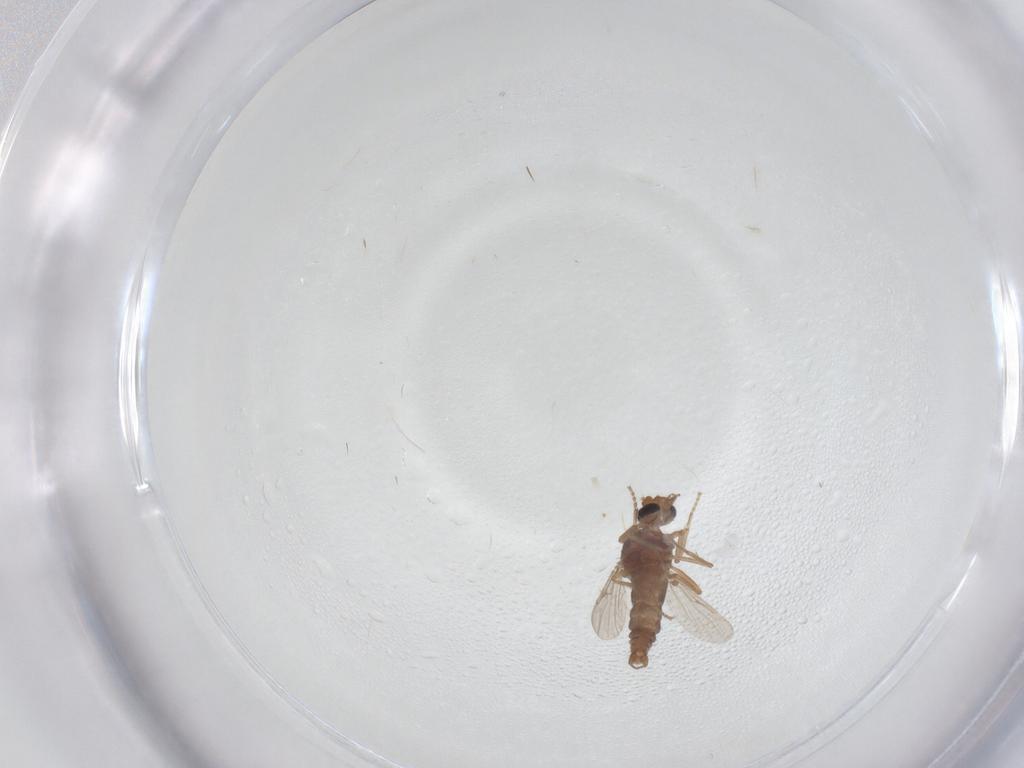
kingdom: Animalia
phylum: Arthropoda
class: Insecta
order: Diptera
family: Ceratopogonidae
